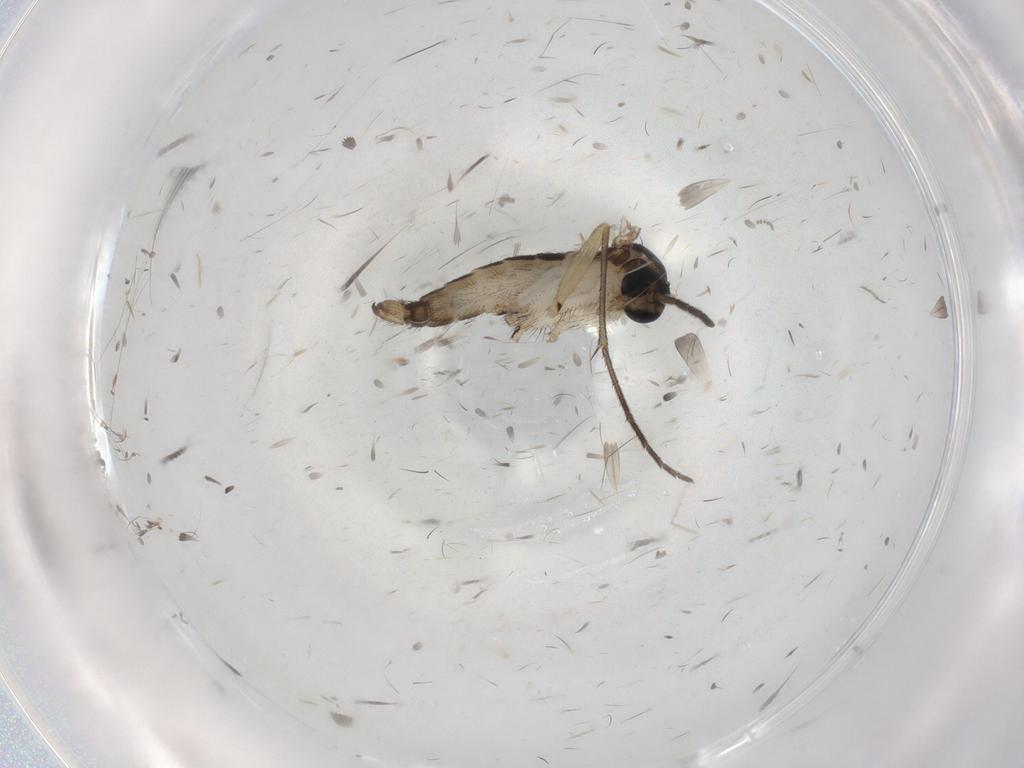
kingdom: Animalia
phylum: Arthropoda
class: Insecta
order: Diptera
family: Sciaridae
